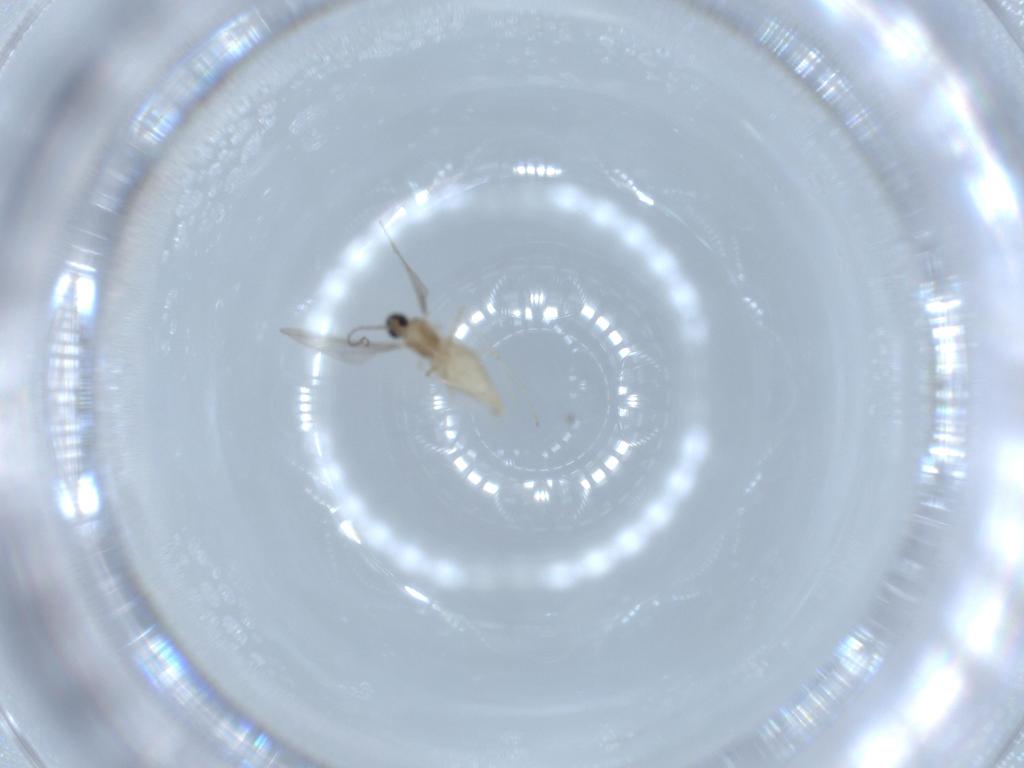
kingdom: Animalia
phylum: Arthropoda
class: Insecta
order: Diptera
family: Cecidomyiidae
